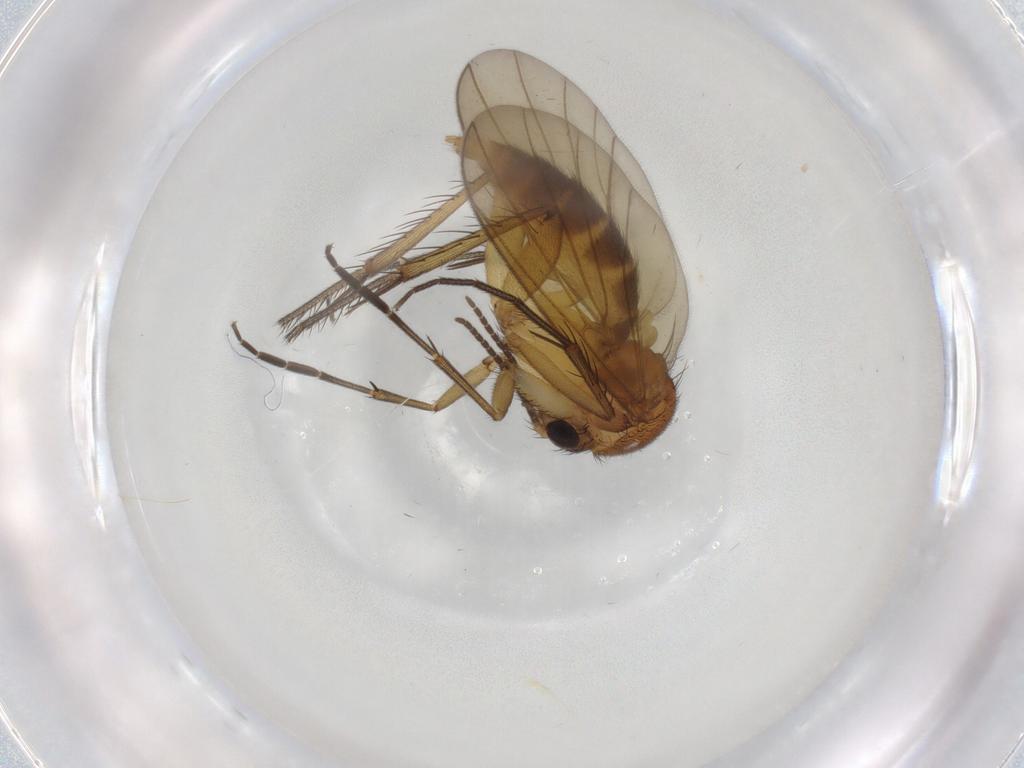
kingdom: Animalia
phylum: Arthropoda
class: Insecta
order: Diptera
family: Mycetophilidae
